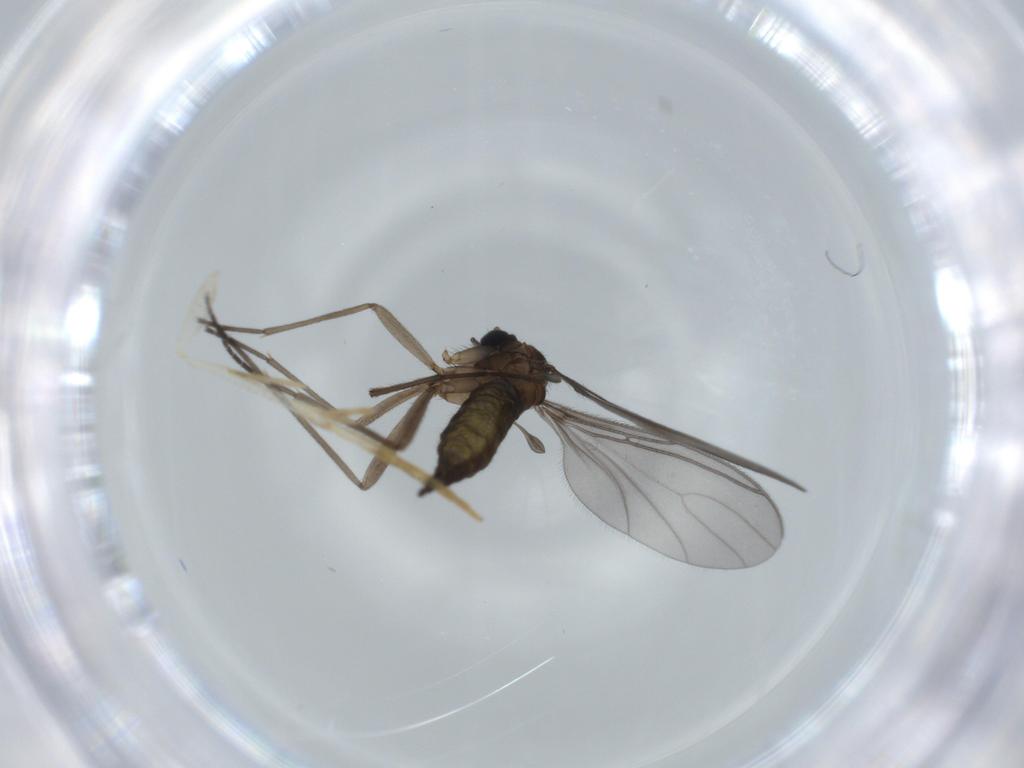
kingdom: Animalia
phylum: Arthropoda
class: Insecta
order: Diptera
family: Sciaridae
